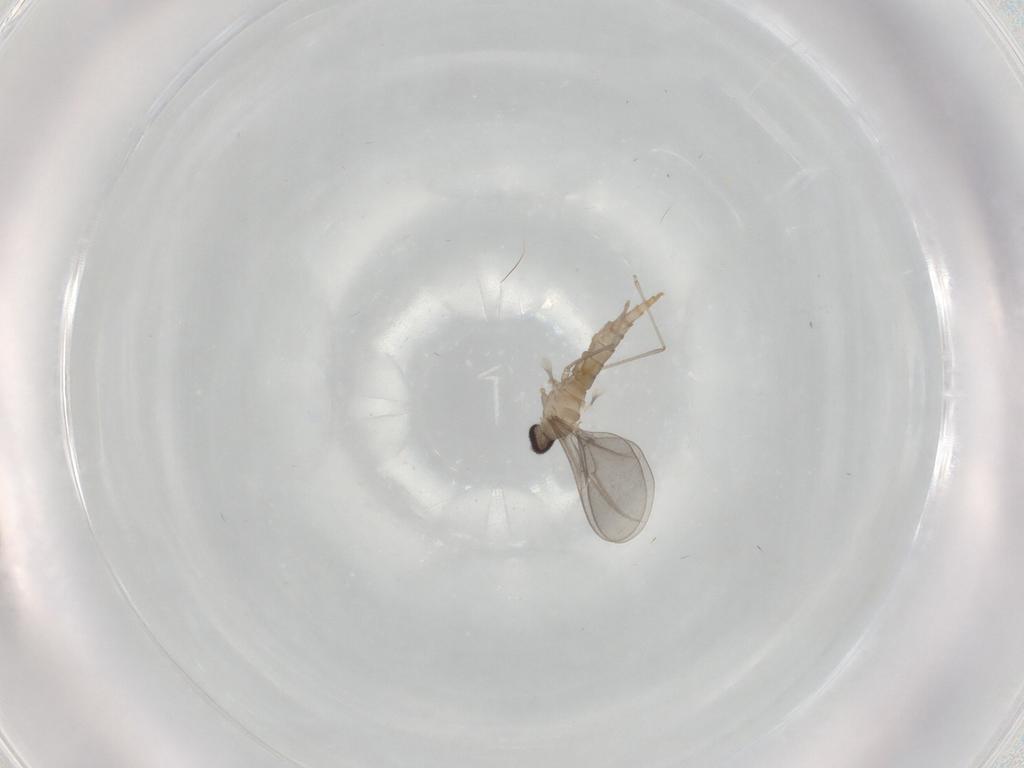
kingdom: Animalia
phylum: Arthropoda
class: Insecta
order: Diptera
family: Cecidomyiidae
